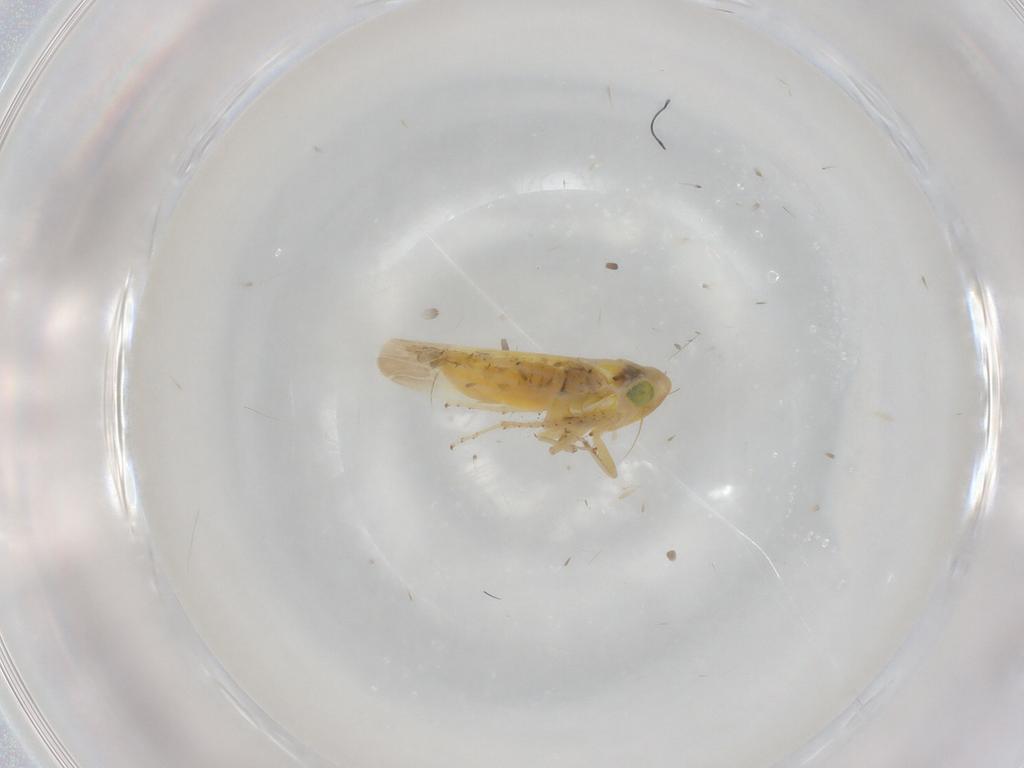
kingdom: Animalia
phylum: Arthropoda
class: Insecta
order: Hemiptera
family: Cicadellidae
